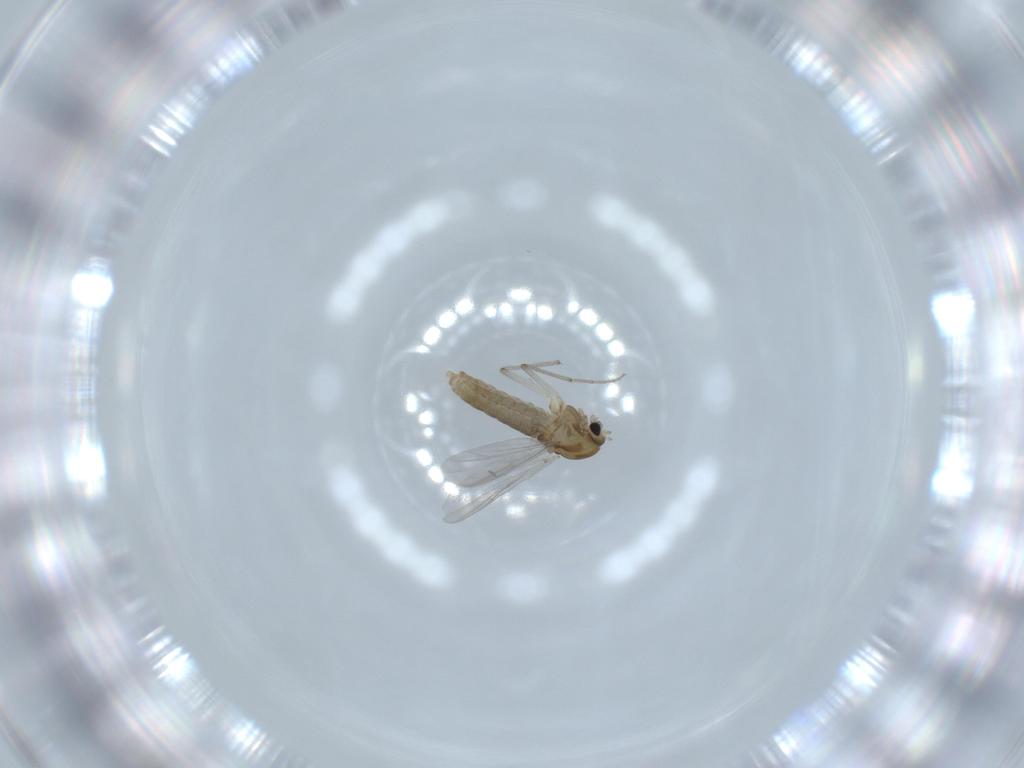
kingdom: Animalia
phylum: Arthropoda
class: Insecta
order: Diptera
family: Chironomidae
